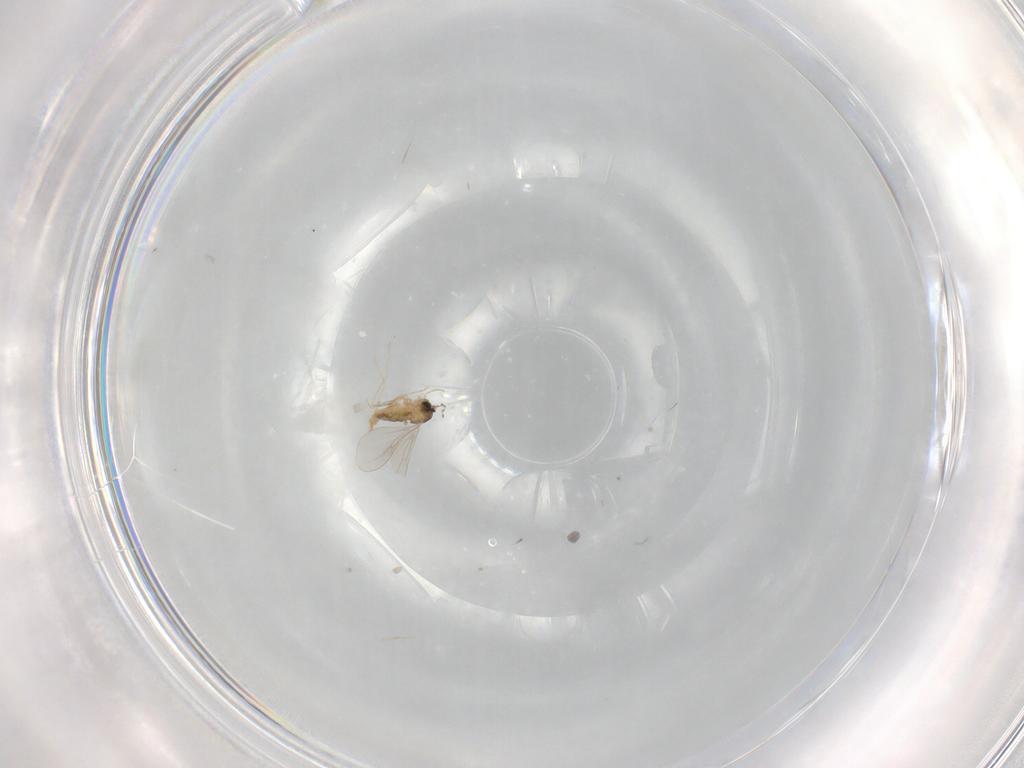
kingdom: Animalia
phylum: Arthropoda
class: Insecta
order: Diptera
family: Cecidomyiidae
